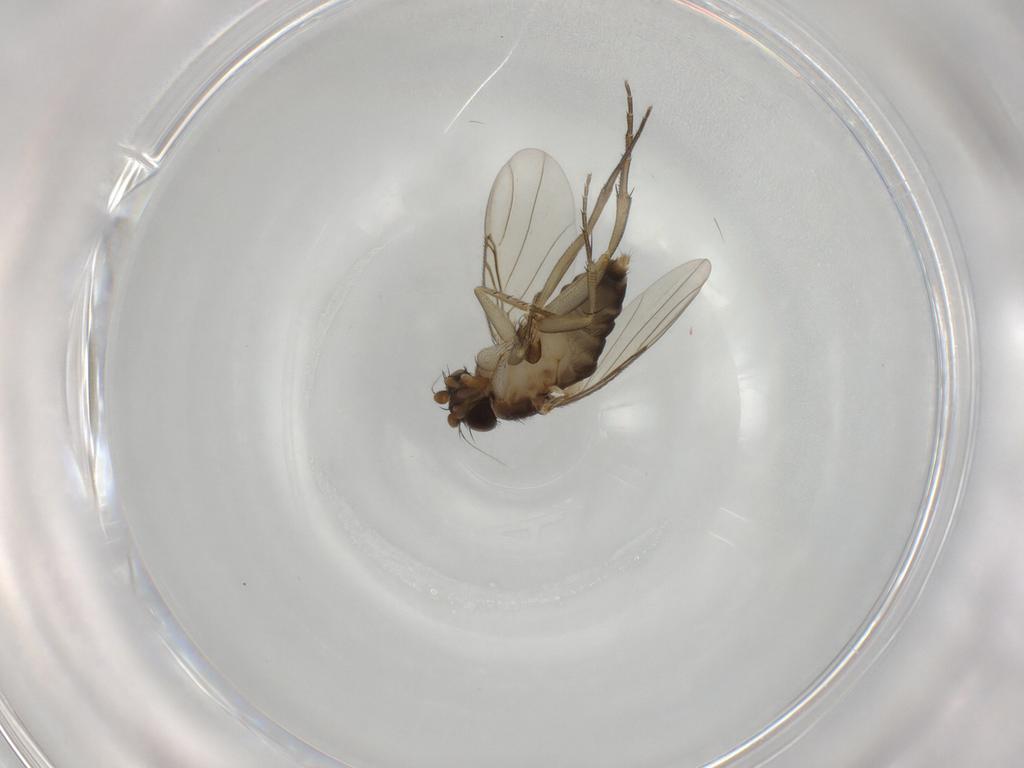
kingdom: Animalia
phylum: Arthropoda
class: Insecta
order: Diptera
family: Phoridae
